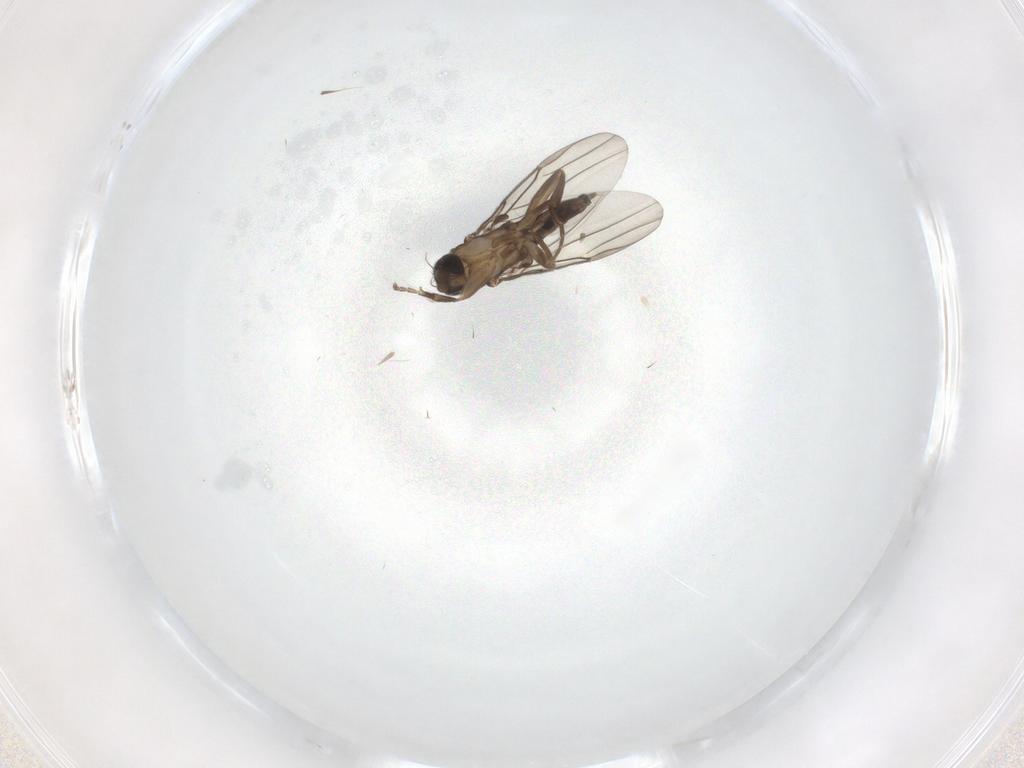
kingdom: Animalia
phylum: Arthropoda
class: Insecta
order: Diptera
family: Phoridae
